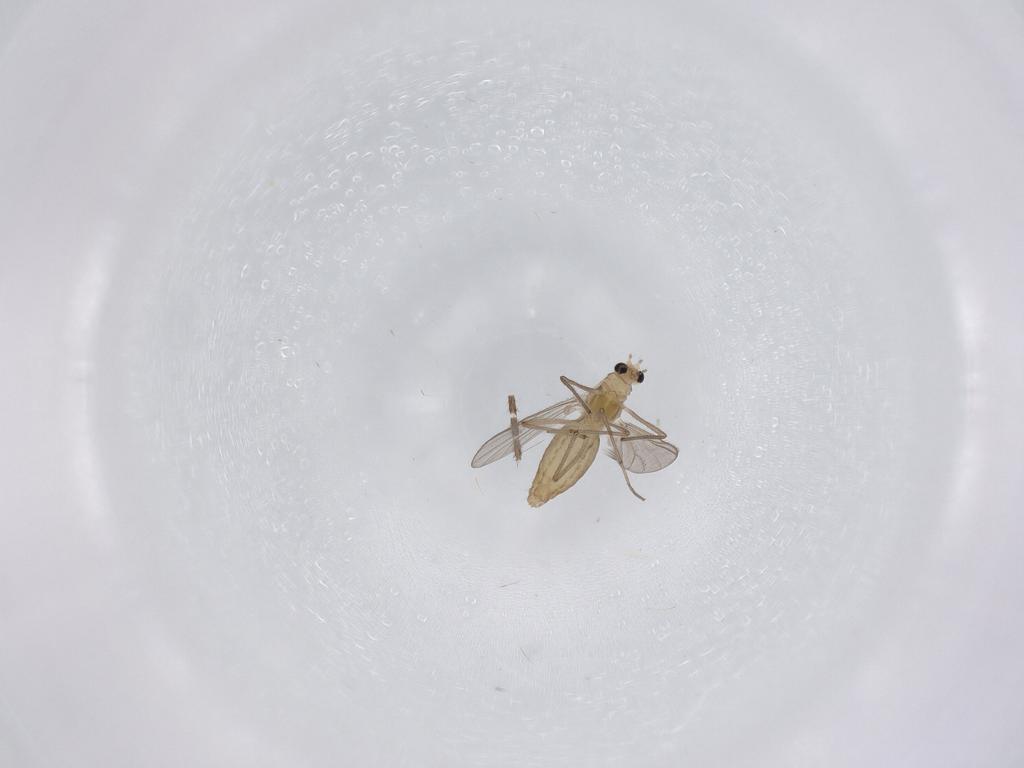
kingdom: Animalia
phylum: Arthropoda
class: Insecta
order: Diptera
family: Chironomidae
